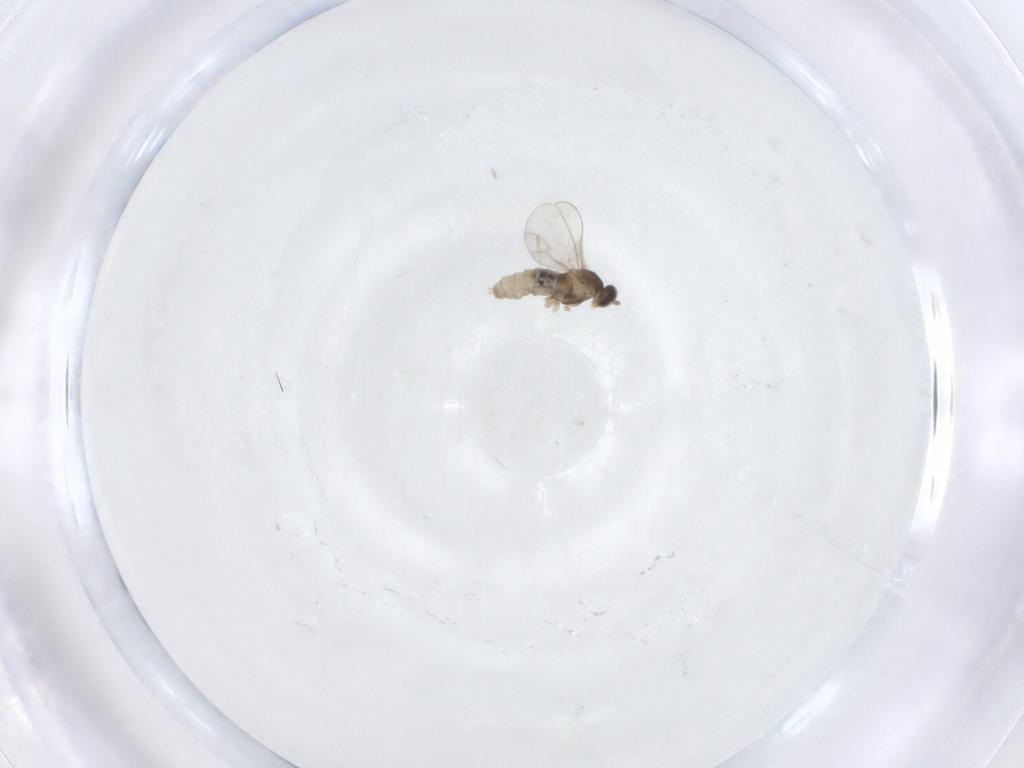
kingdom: Animalia
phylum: Arthropoda
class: Insecta
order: Diptera
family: Cecidomyiidae
